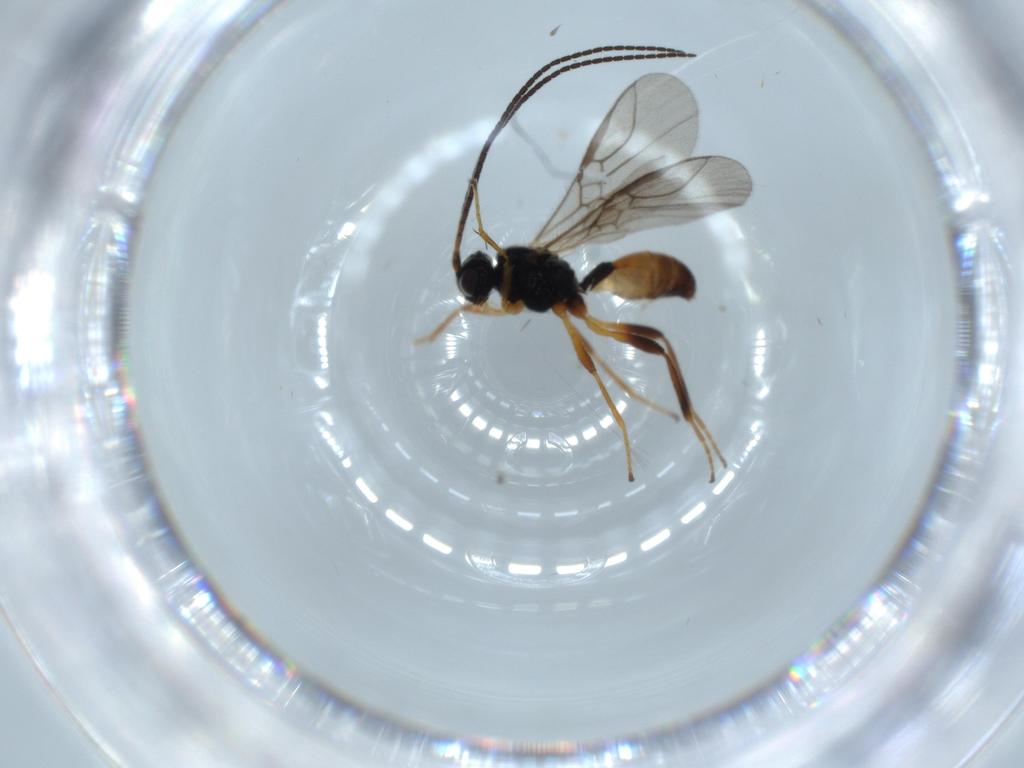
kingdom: Animalia
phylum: Arthropoda
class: Insecta
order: Hymenoptera
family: Braconidae
